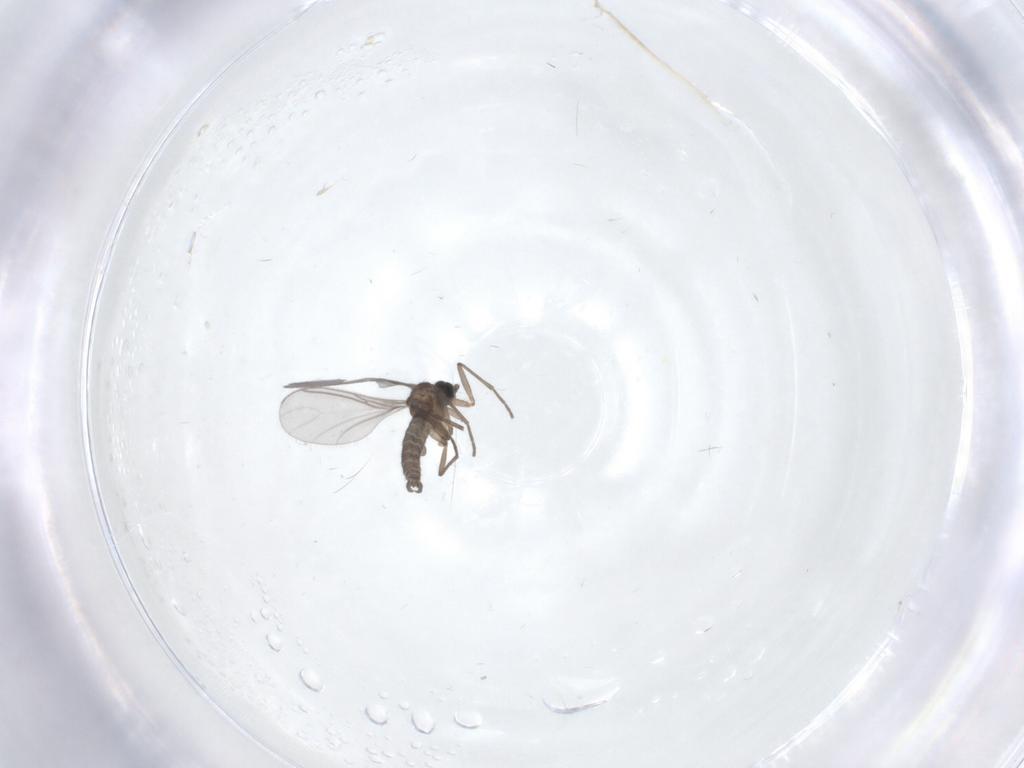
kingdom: Animalia
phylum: Arthropoda
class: Insecta
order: Diptera
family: Sciaridae
